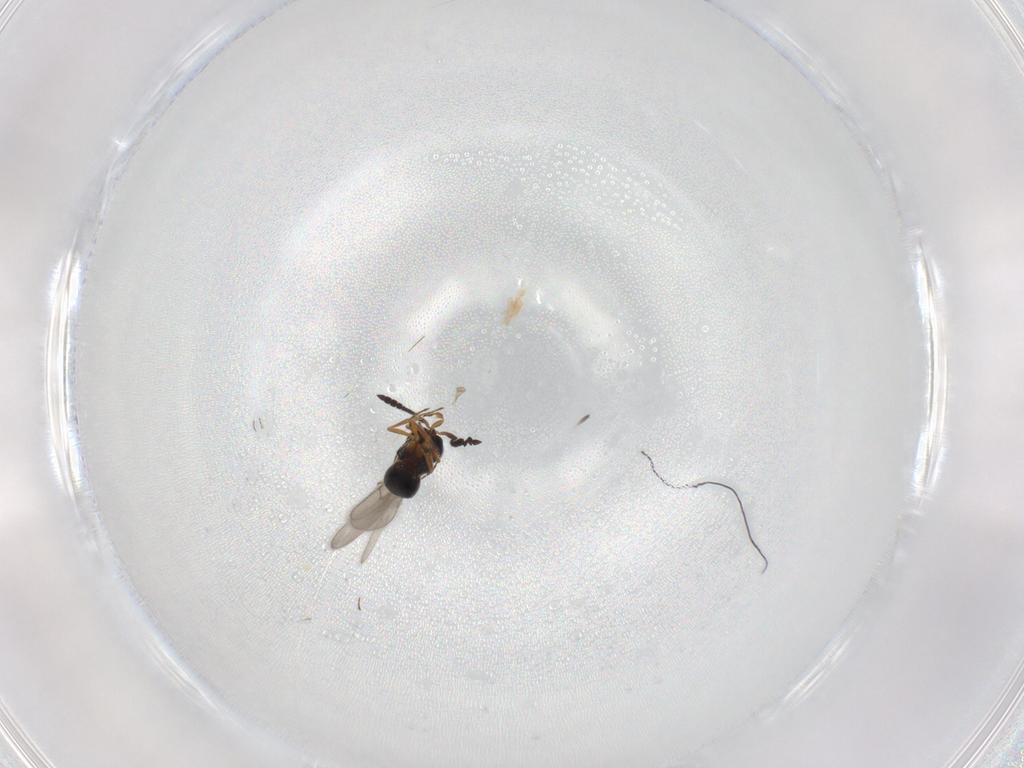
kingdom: Animalia
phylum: Arthropoda
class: Insecta
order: Hymenoptera
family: Scelionidae
